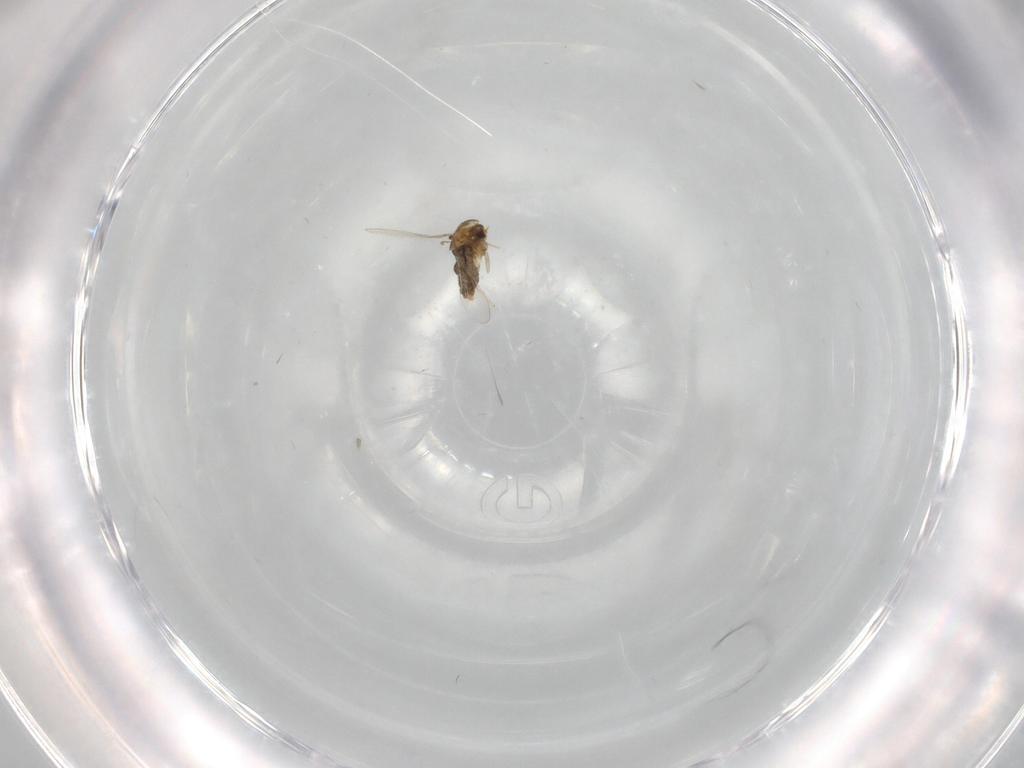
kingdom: Animalia
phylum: Arthropoda
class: Insecta
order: Diptera
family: Chironomidae
